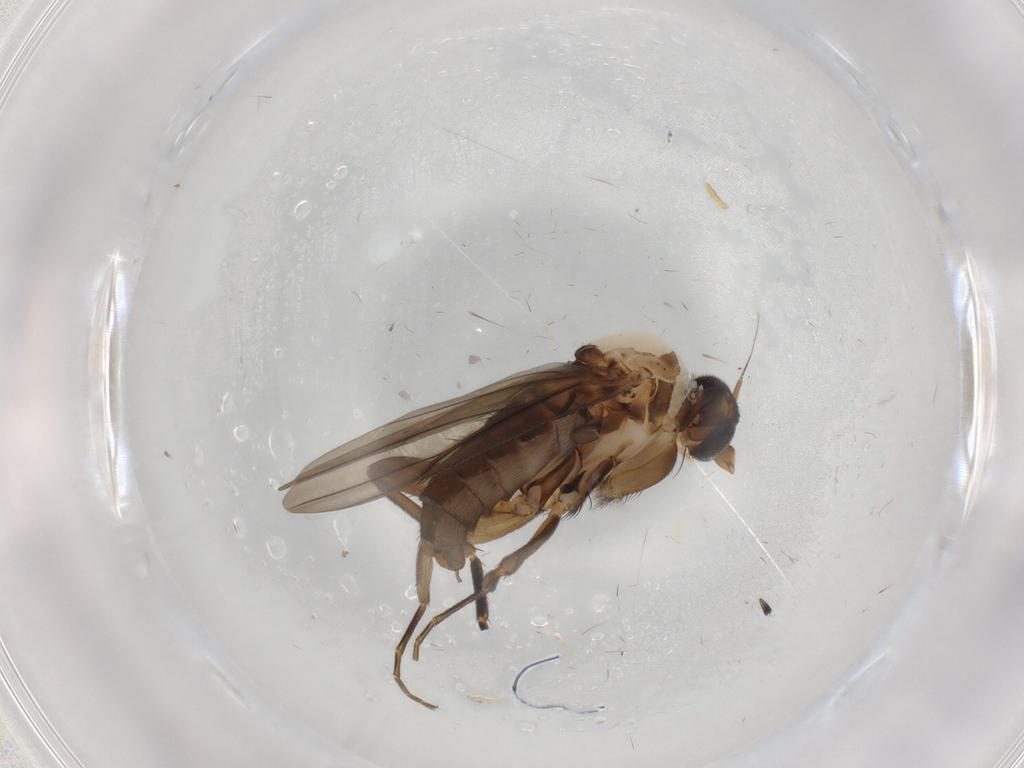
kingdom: Animalia
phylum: Arthropoda
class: Insecta
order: Diptera
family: Phoridae
